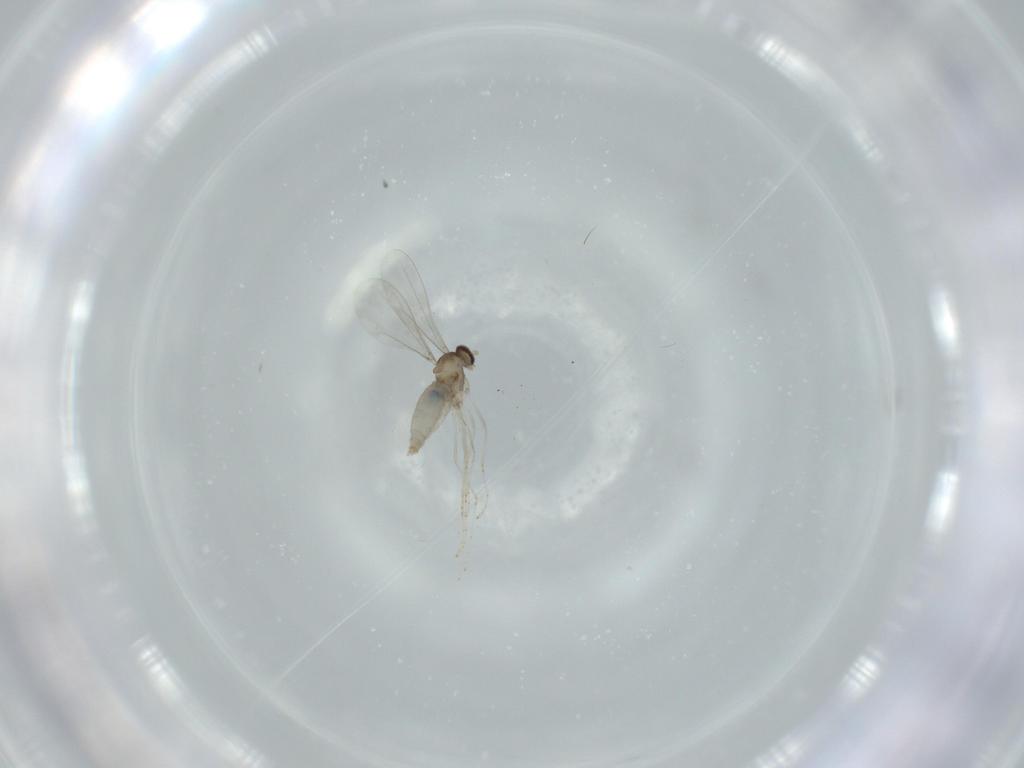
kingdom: Animalia
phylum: Arthropoda
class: Insecta
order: Diptera
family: Cecidomyiidae
